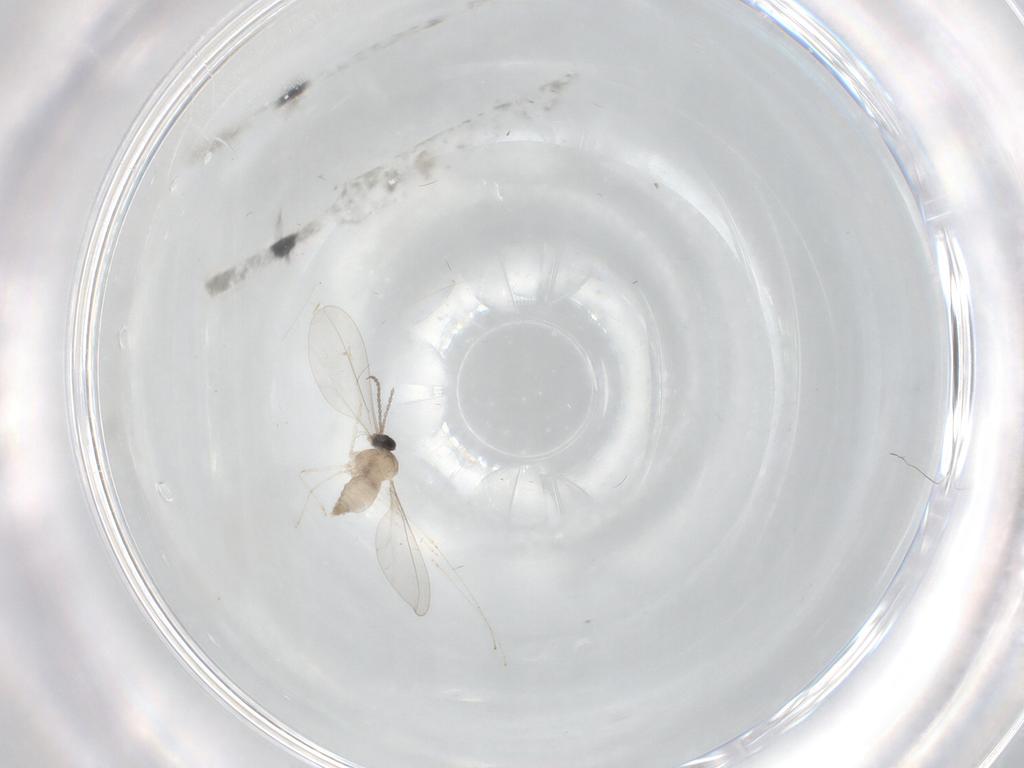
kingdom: Animalia
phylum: Arthropoda
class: Insecta
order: Diptera
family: Cecidomyiidae
